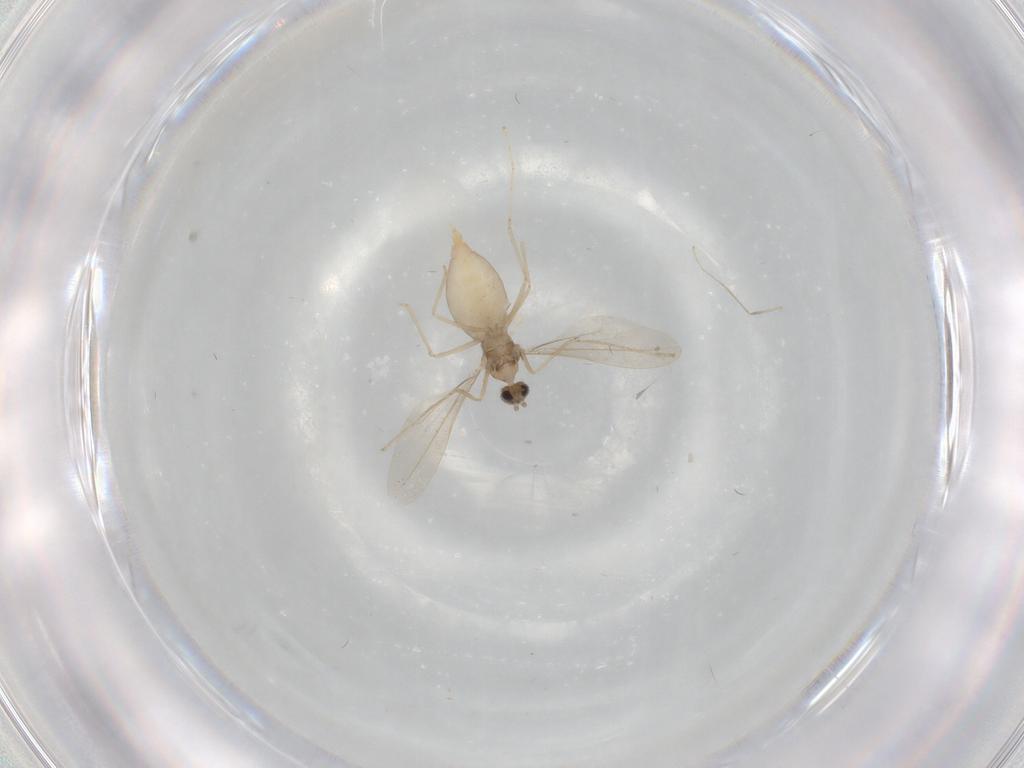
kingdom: Animalia
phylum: Arthropoda
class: Insecta
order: Diptera
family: Cecidomyiidae
